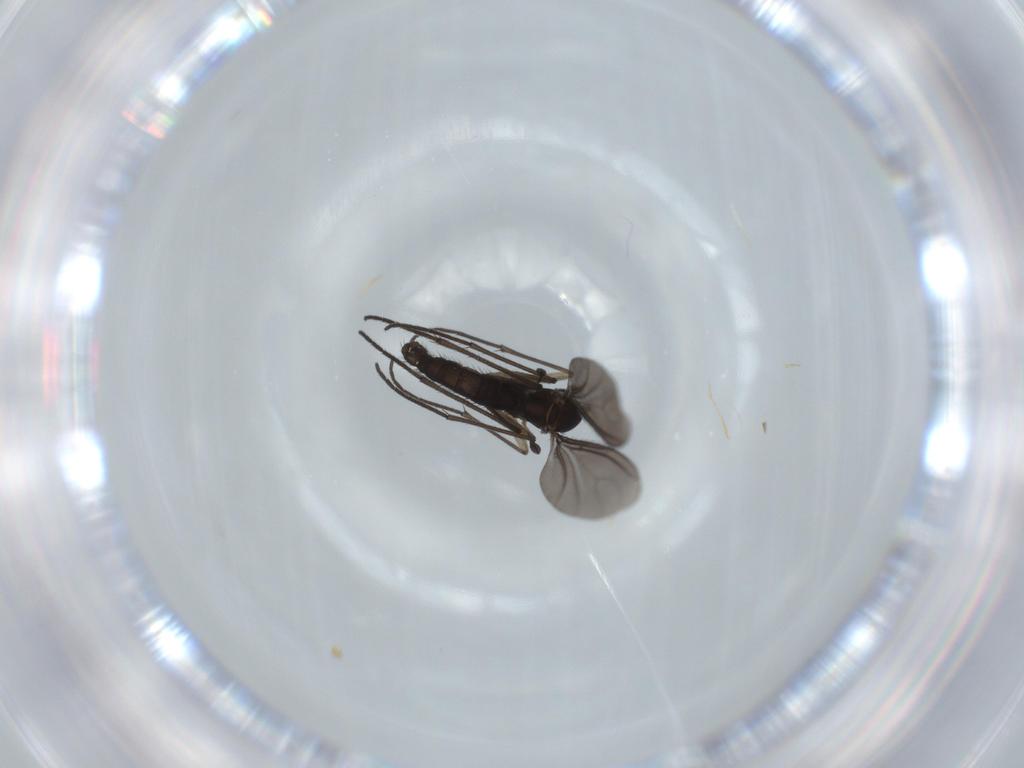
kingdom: Animalia
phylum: Arthropoda
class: Insecta
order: Diptera
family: Sciaridae
